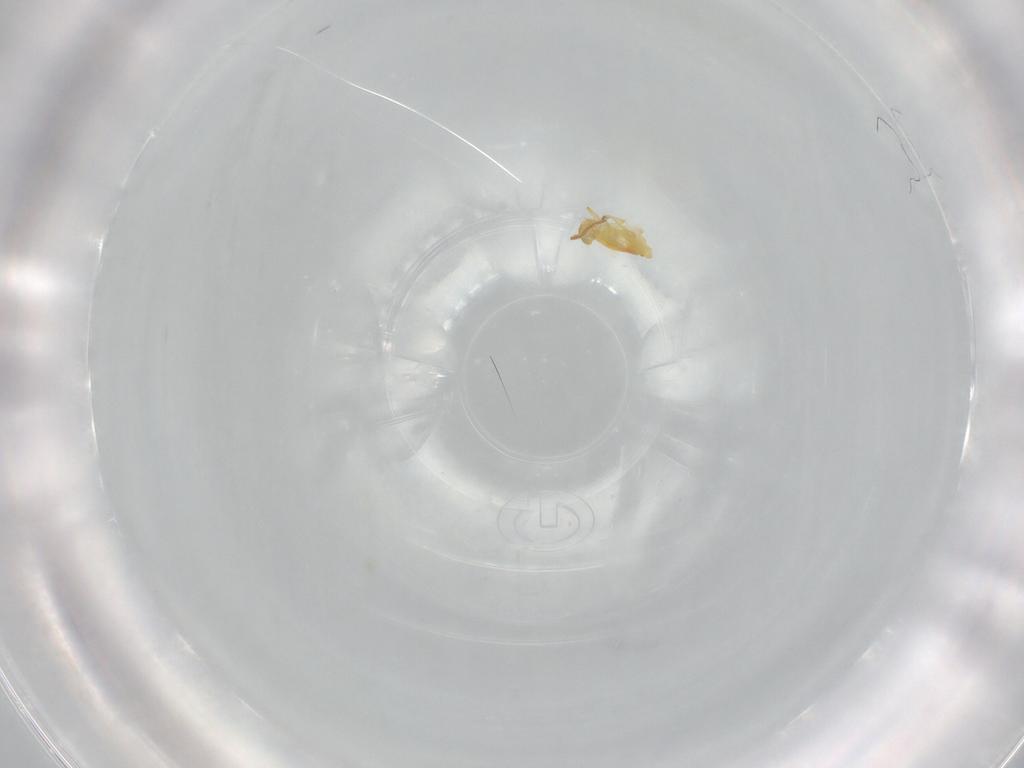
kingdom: Animalia
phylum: Arthropoda
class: Collembola
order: Symphypleona
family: Bourletiellidae
